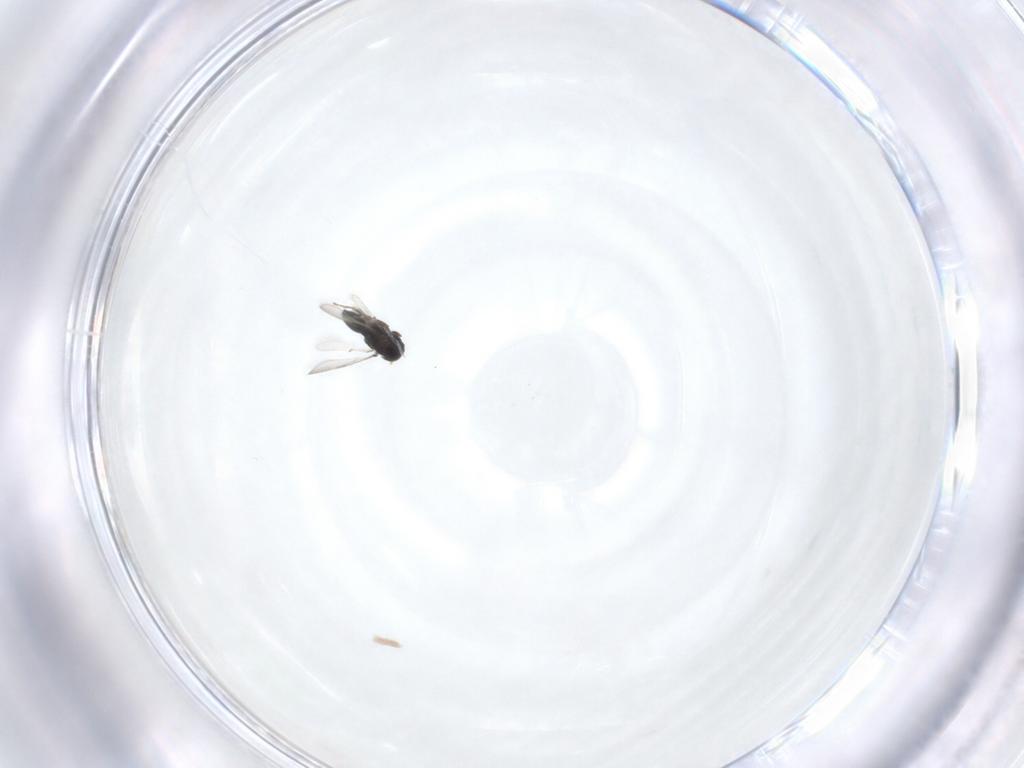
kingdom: Animalia
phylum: Arthropoda
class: Insecta
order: Hymenoptera
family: Scelionidae
